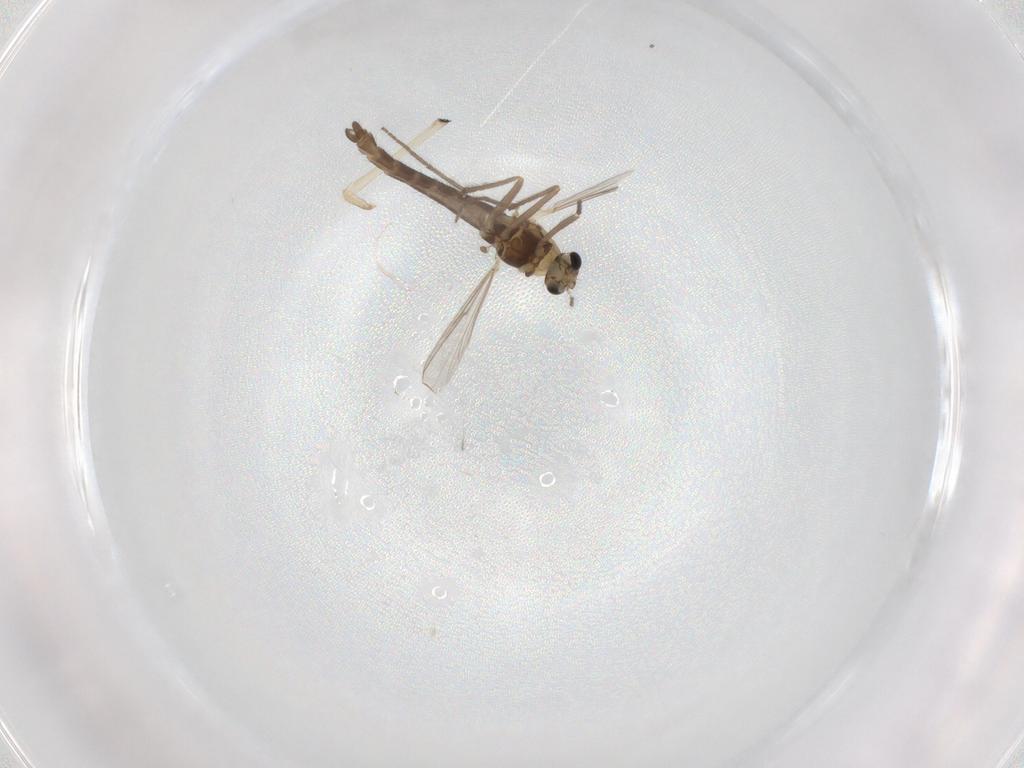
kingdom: Animalia
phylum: Arthropoda
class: Insecta
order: Diptera
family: Chironomidae
